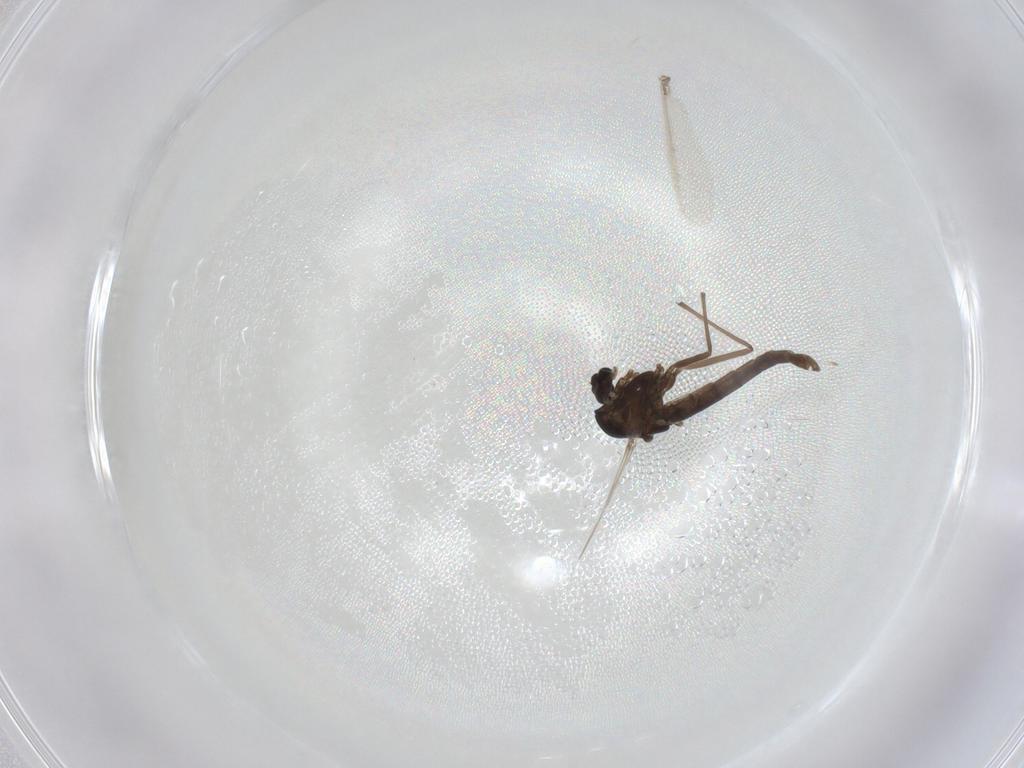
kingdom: Animalia
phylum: Arthropoda
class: Insecta
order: Diptera
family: Chironomidae
